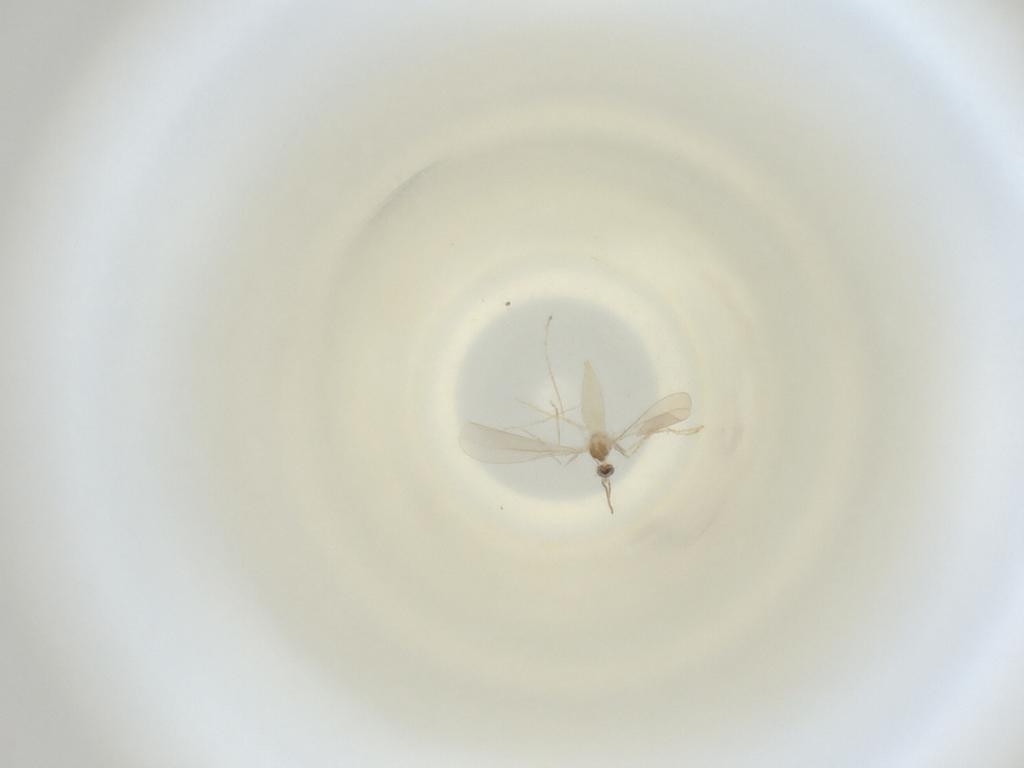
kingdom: Animalia
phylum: Arthropoda
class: Insecta
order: Diptera
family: Cecidomyiidae
